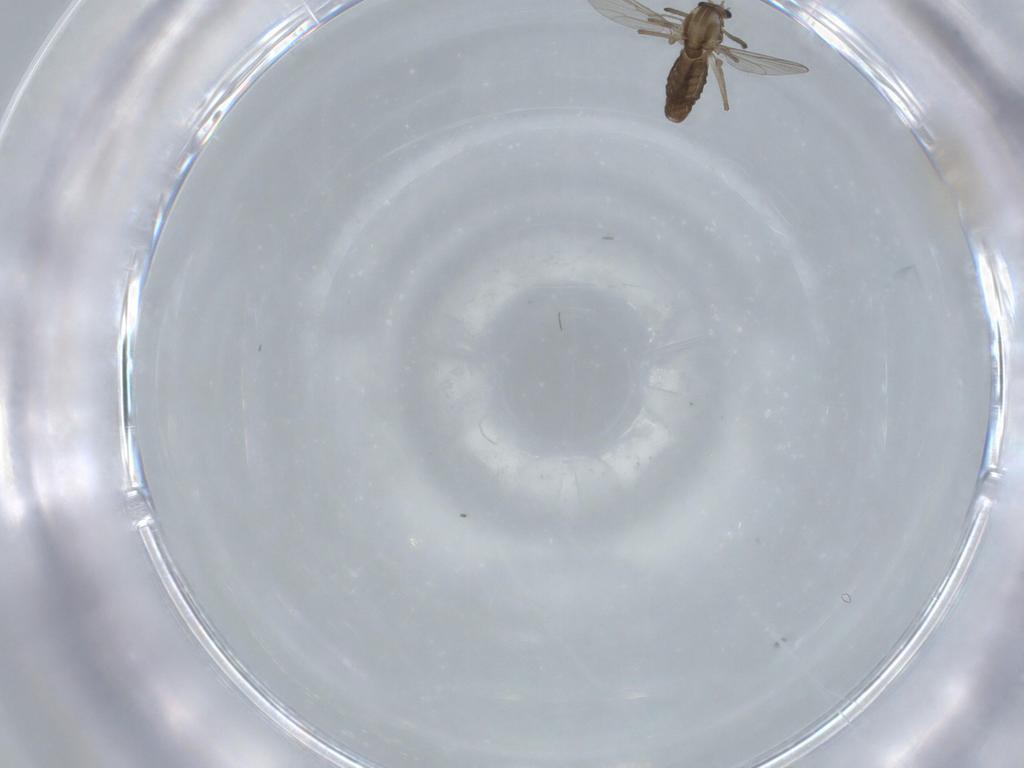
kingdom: Animalia
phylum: Arthropoda
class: Insecta
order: Diptera
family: Chironomidae
